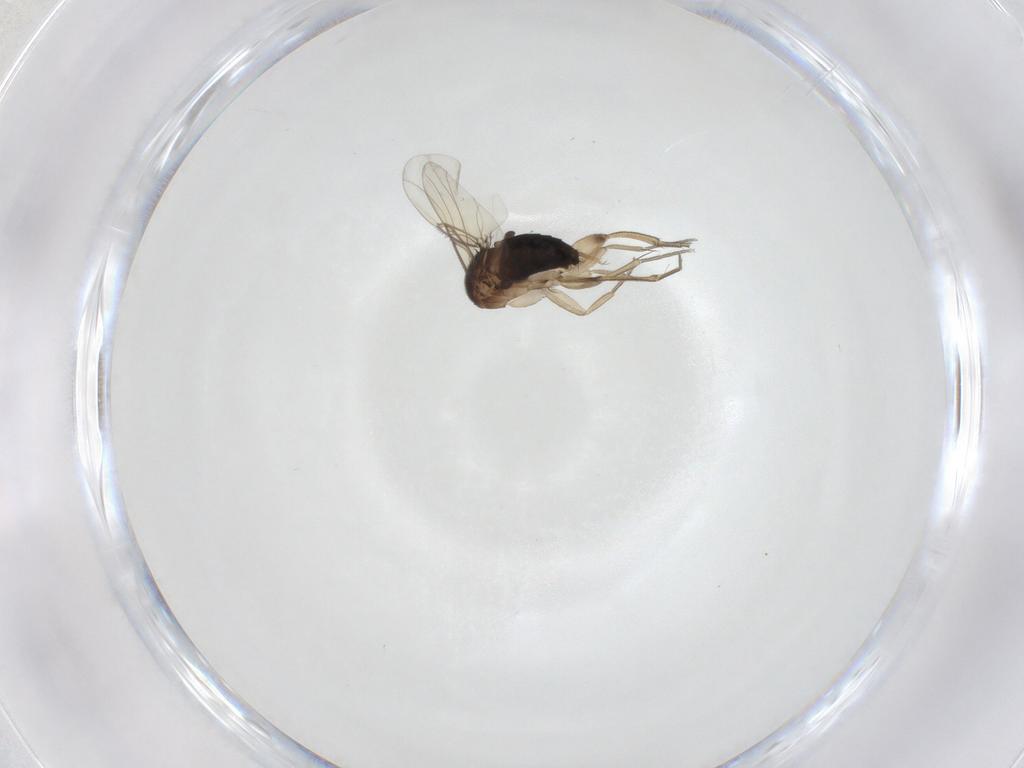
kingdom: Animalia
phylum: Arthropoda
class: Insecta
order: Diptera
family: Phoridae
